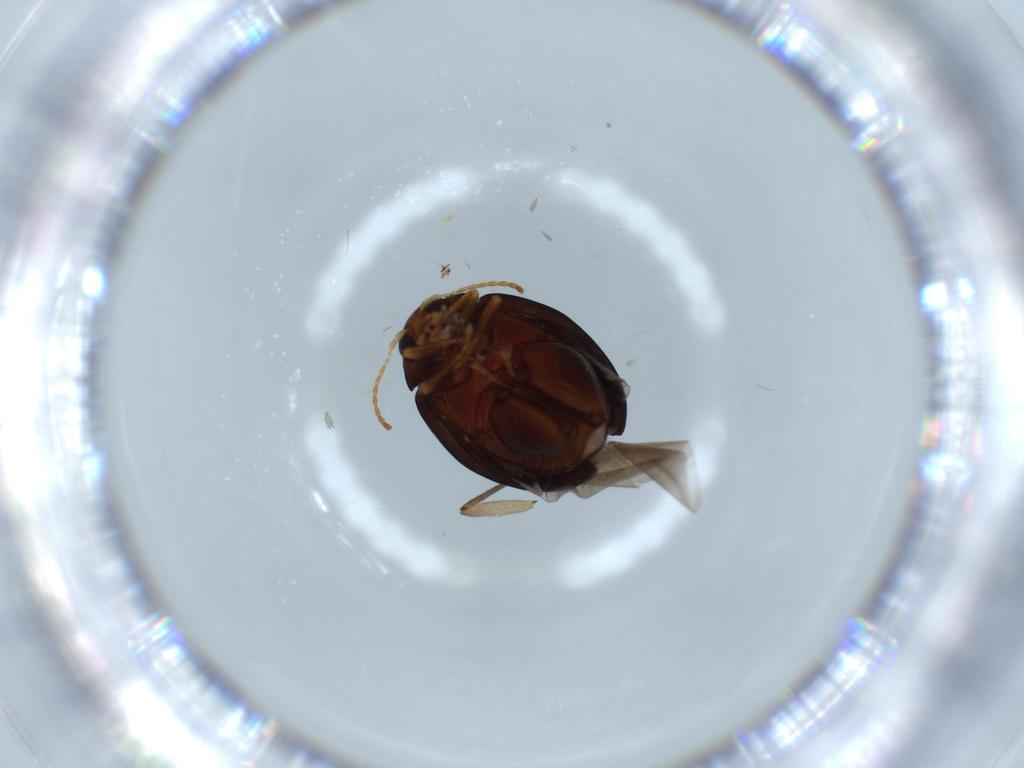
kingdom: Animalia
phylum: Arthropoda
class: Insecta
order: Coleoptera
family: Chrysomelidae
